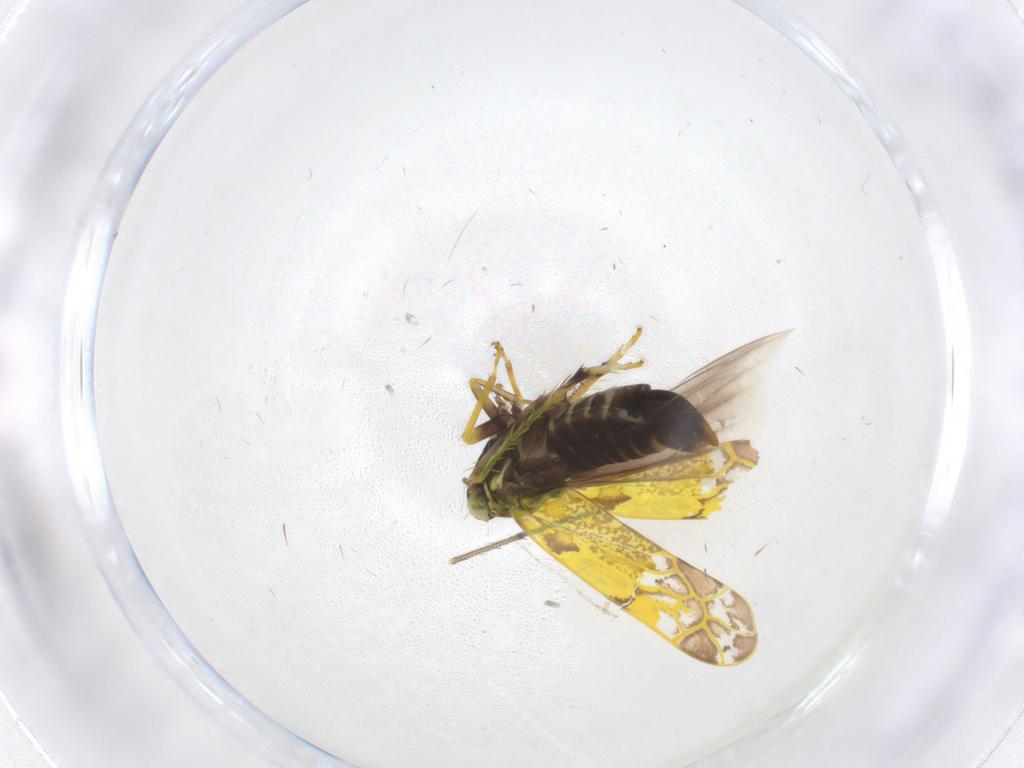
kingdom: Animalia
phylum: Arthropoda
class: Insecta
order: Hemiptera
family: Cicadellidae
